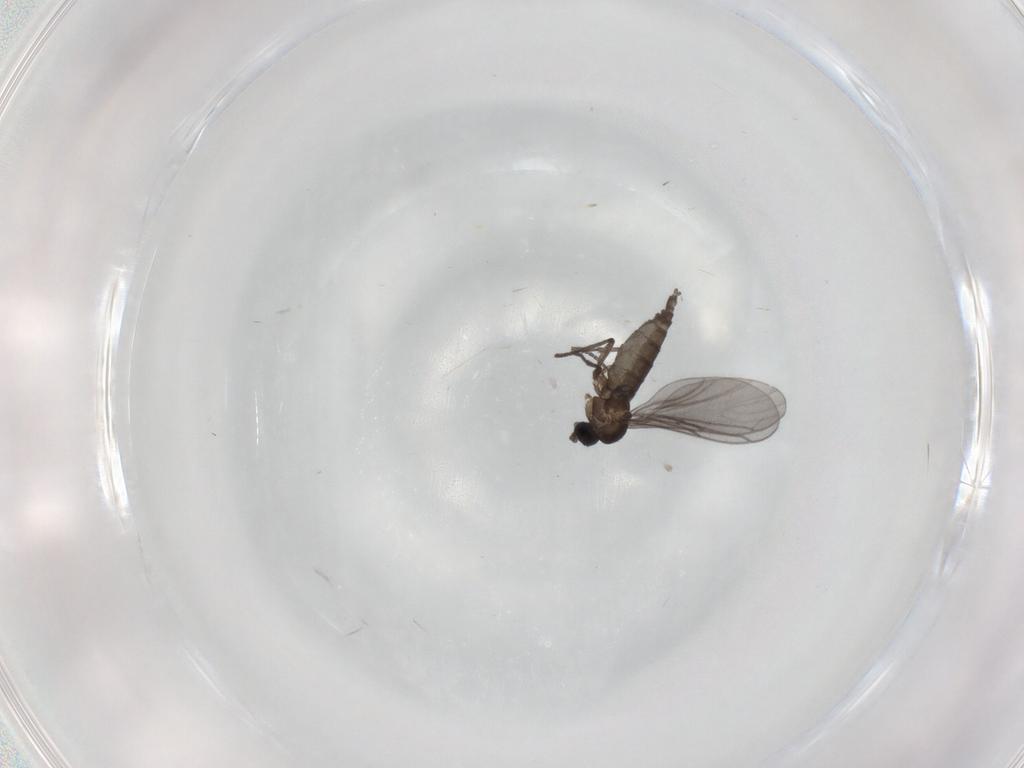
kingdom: Animalia
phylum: Arthropoda
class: Insecta
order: Diptera
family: Cecidomyiidae
